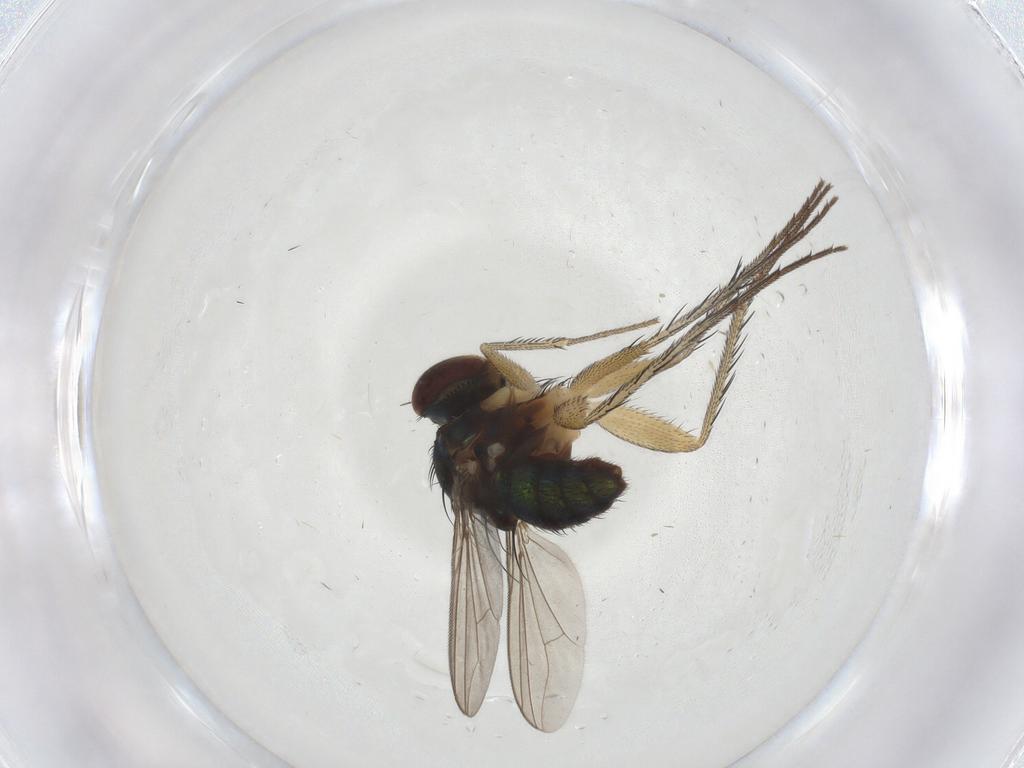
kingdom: Animalia
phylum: Arthropoda
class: Insecta
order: Diptera
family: Dolichopodidae
